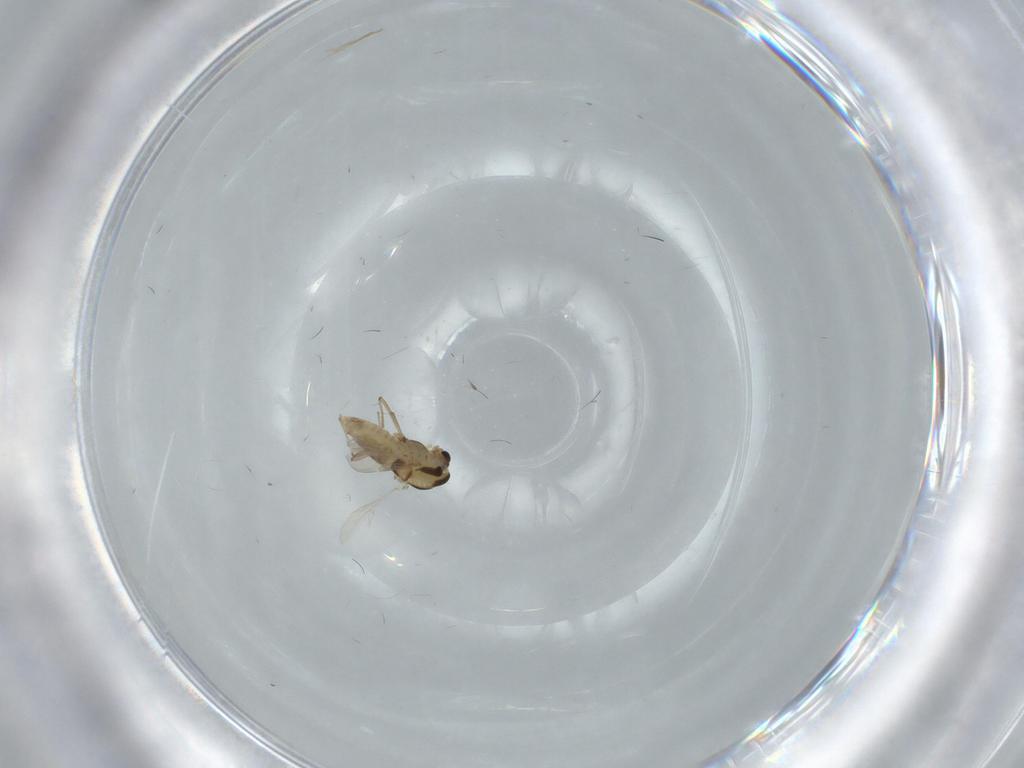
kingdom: Animalia
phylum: Arthropoda
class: Insecta
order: Diptera
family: Chironomidae
